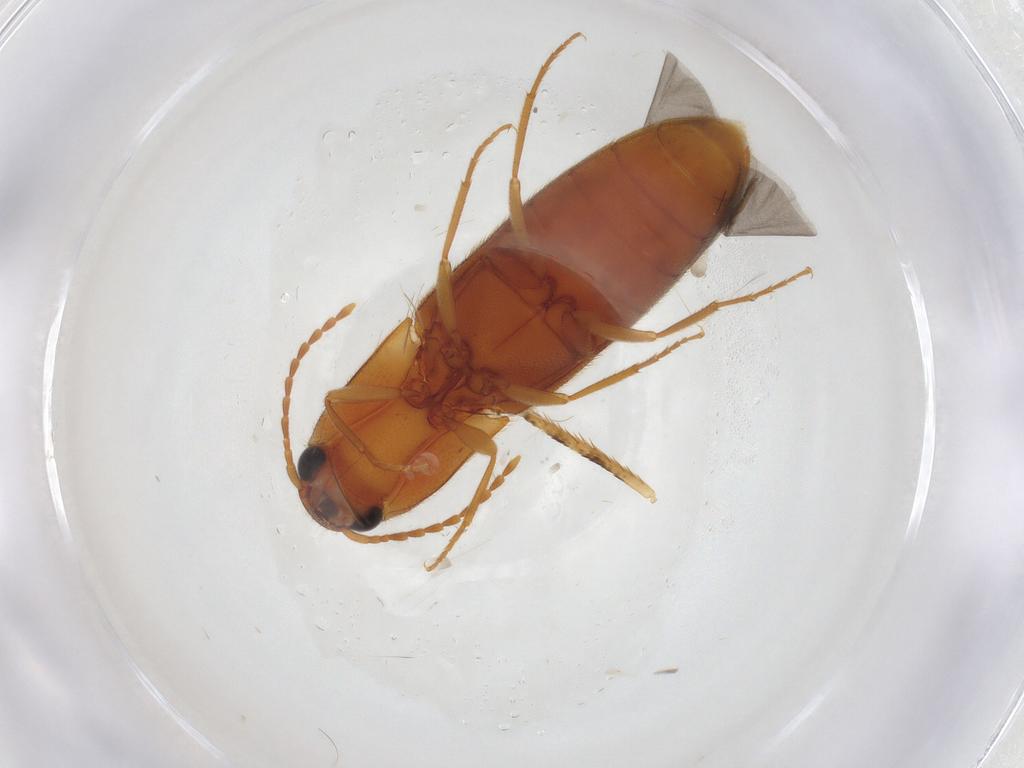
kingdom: Animalia
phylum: Arthropoda
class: Insecta
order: Coleoptera
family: Elateridae
